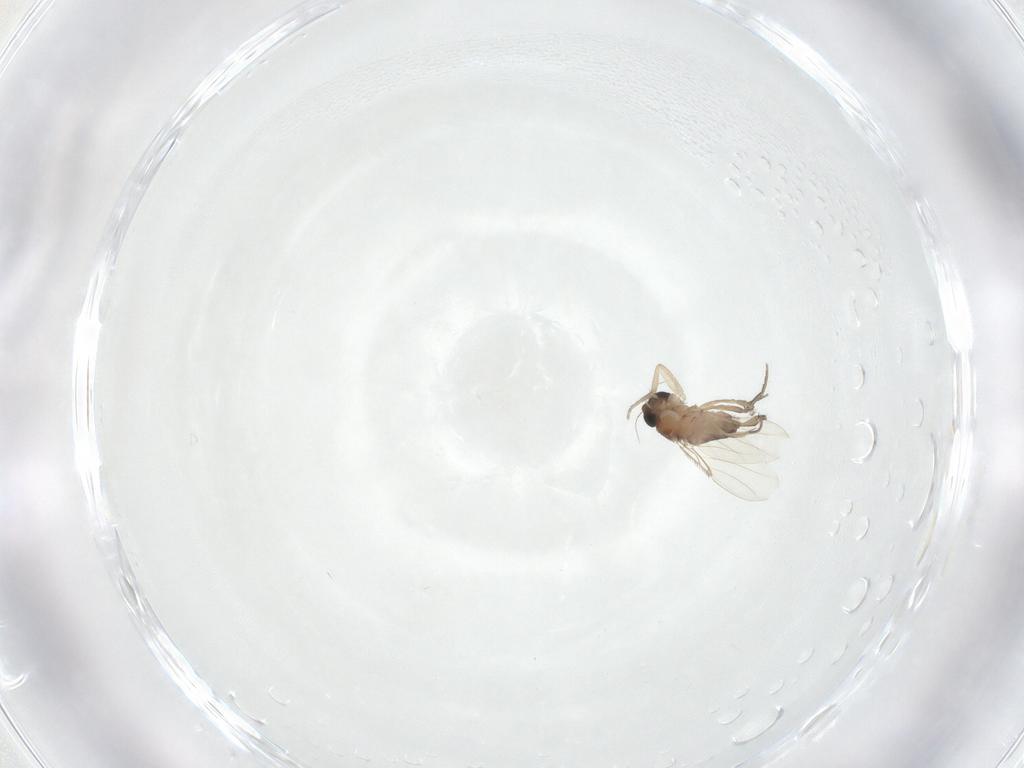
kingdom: Animalia
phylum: Arthropoda
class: Insecta
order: Diptera
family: Phoridae
